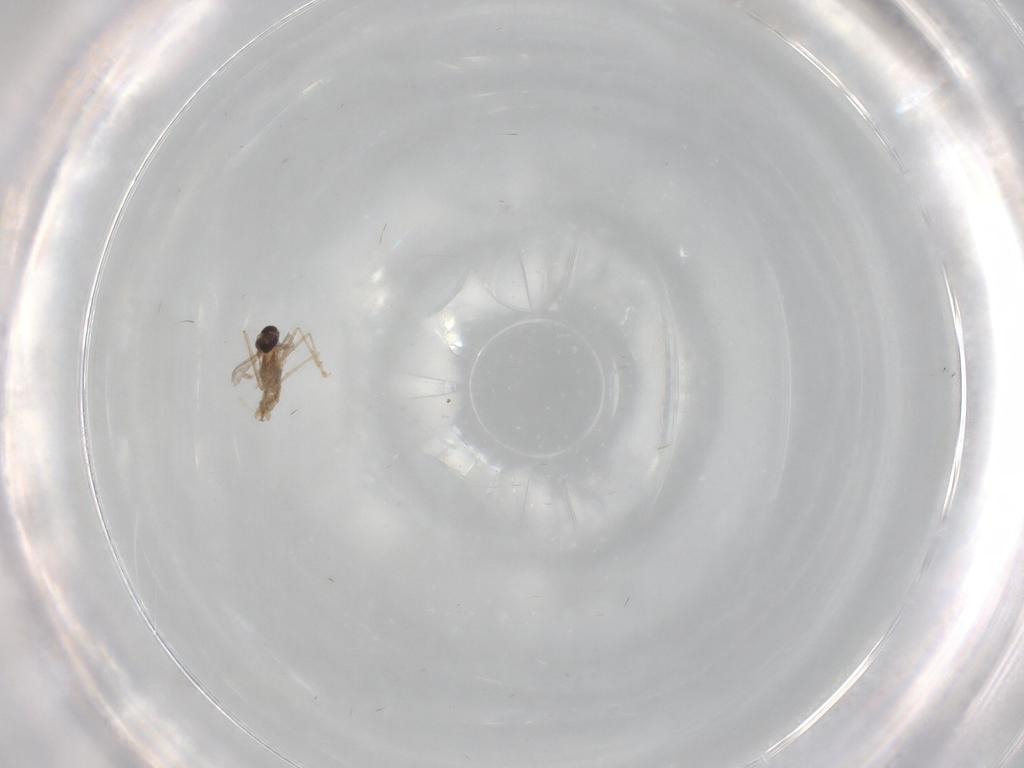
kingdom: Animalia
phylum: Arthropoda
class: Insecta
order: Diptera
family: Cecidomyiidae
